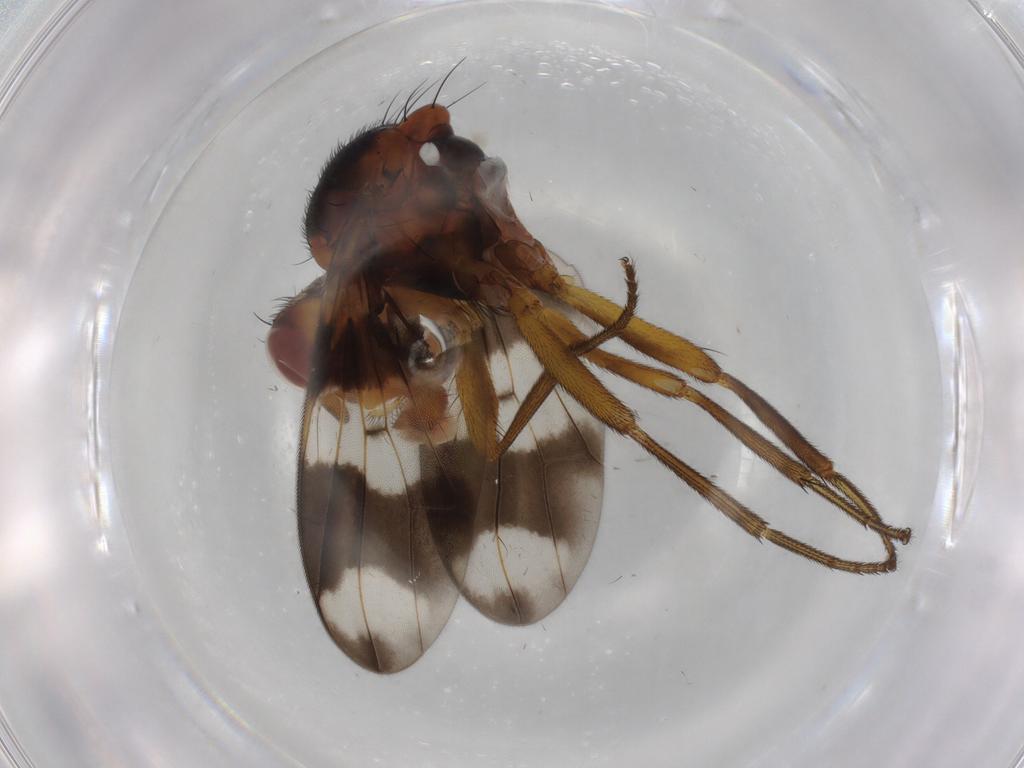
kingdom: Animalia
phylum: Arthropoda
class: Insecta
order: Diptera
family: Richardiidae
